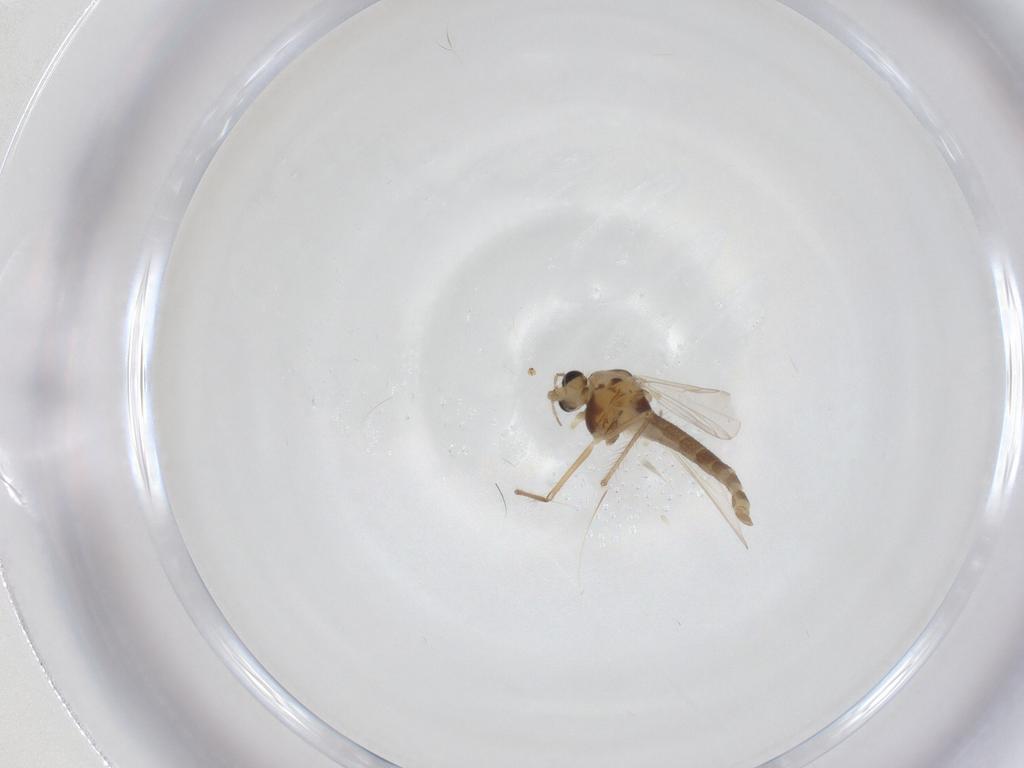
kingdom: Animalia
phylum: Arthropoda
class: Insecta
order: Diptera
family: Chironomidae
